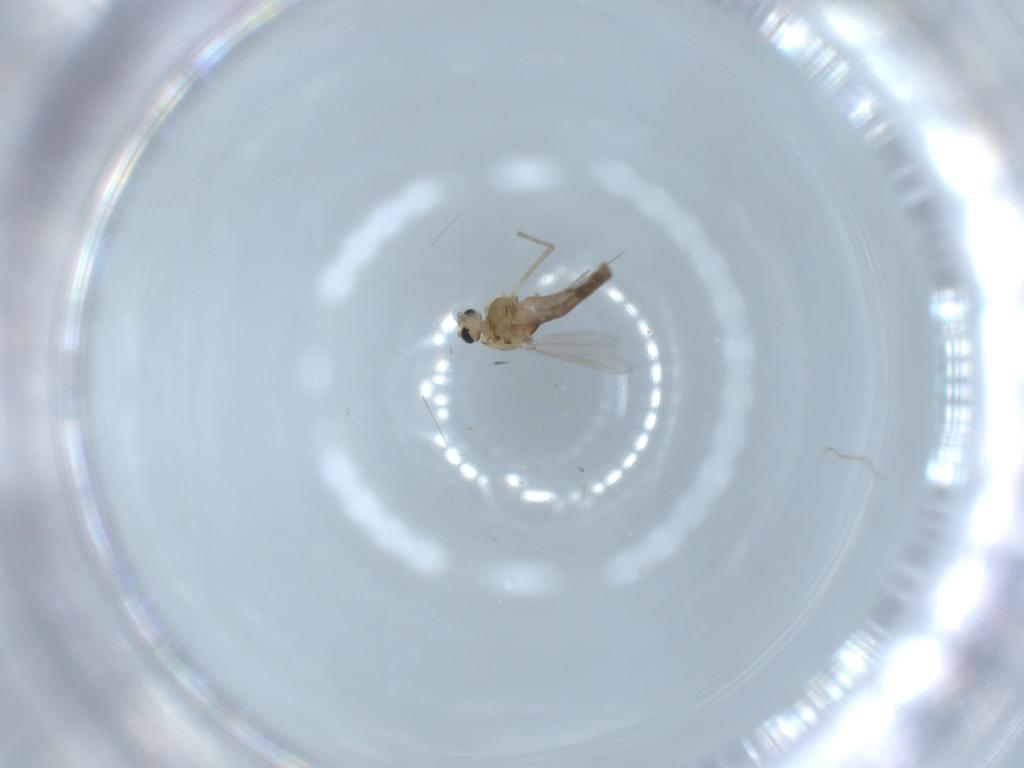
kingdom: Animalia
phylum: Arthropoda
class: Insecta
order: Diptera
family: Chironomidae
